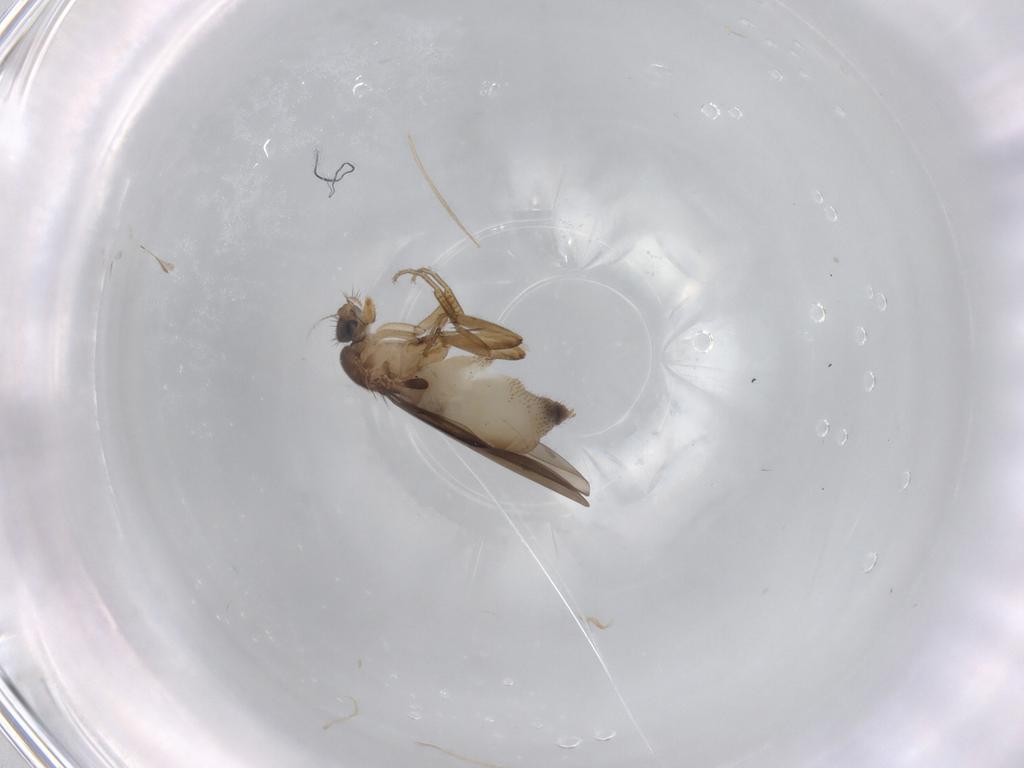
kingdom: Animalia
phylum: Arthropoda
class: Insecta
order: Diptera
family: Phoridae
